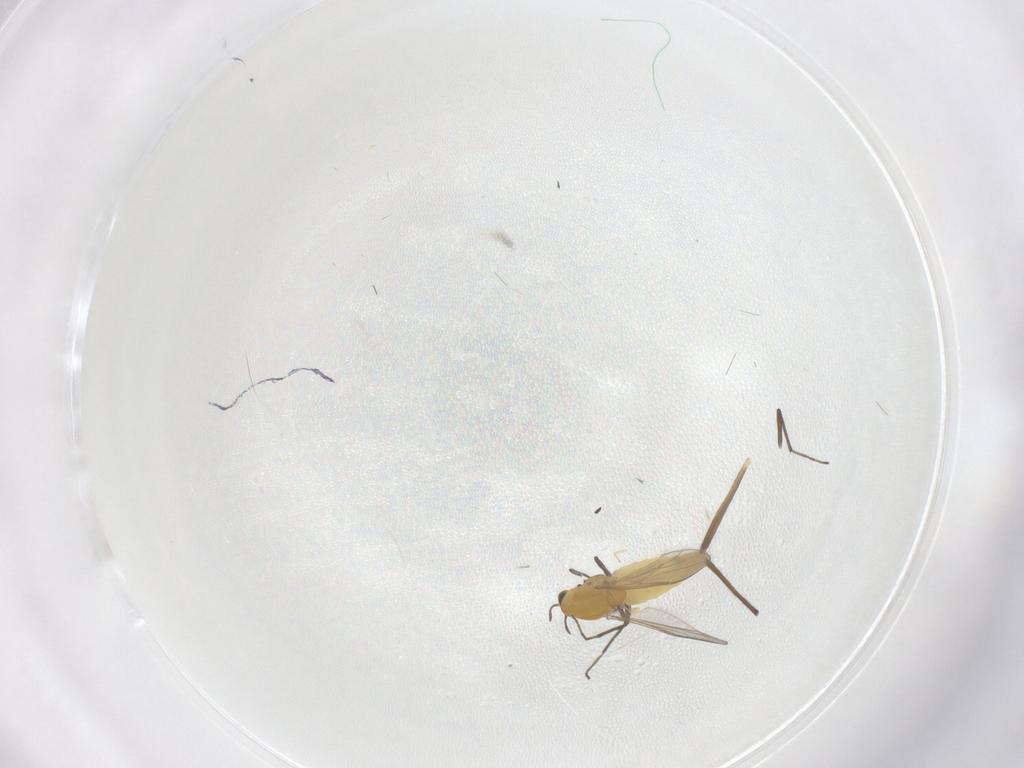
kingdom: Animalia
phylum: Arthropoda
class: Insecta
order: Diptera
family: Chironomidae
